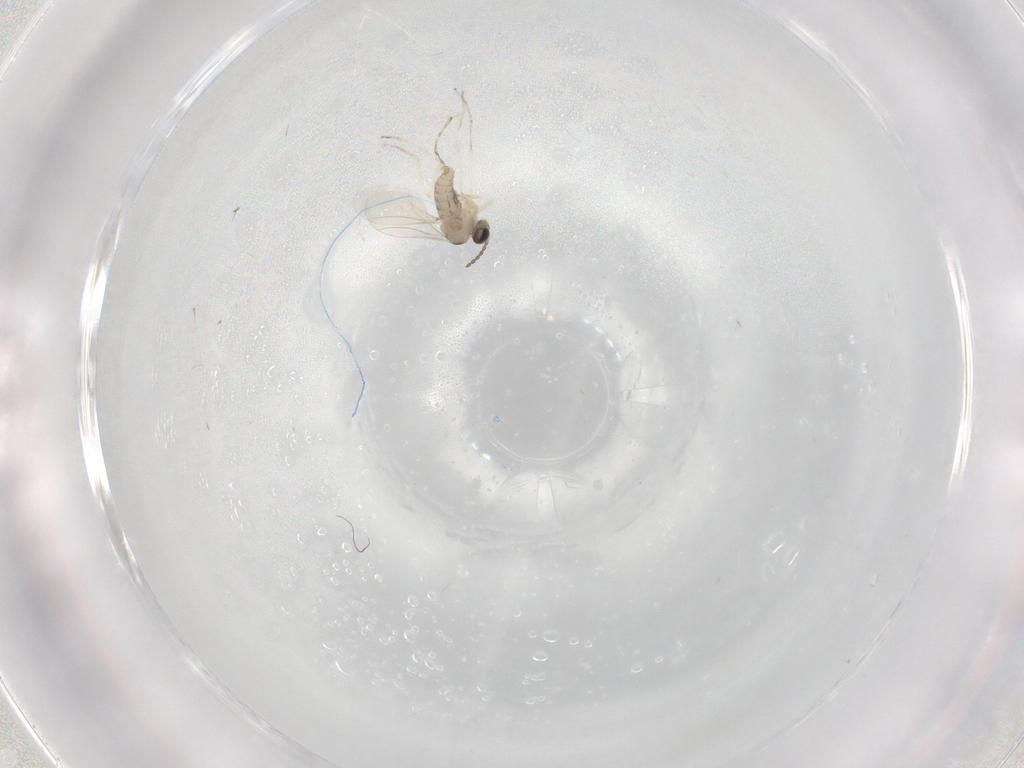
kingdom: Animalia
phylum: Arthropoda
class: Insecta
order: Diptera
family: Cecidomyiidae
